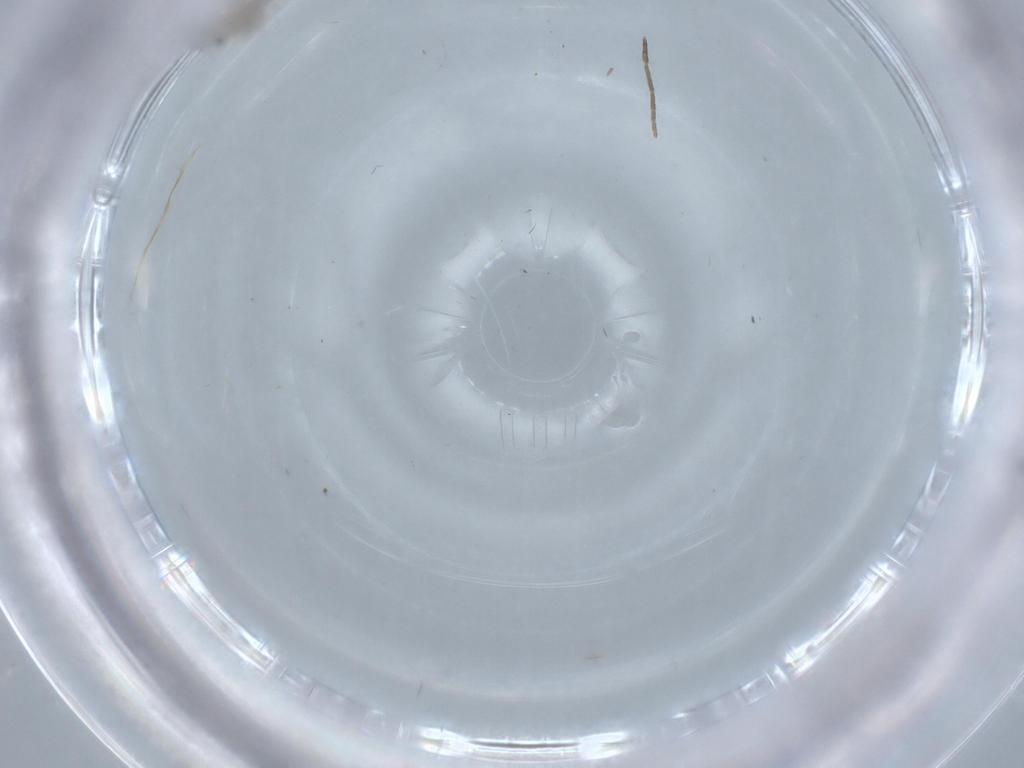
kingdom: Animalia
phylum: Arthropoda
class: Insecta
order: Diptera
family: Psychodidae
